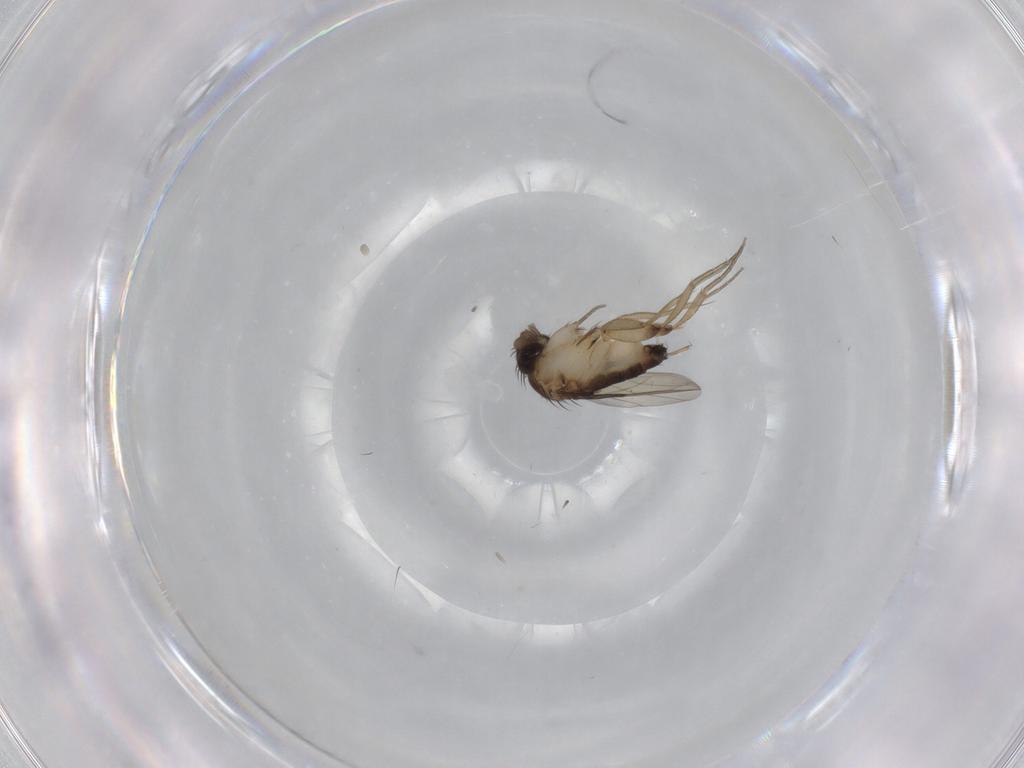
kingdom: Animalia
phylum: Arthropoda
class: Insecta
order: Diptera
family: Phoridae
